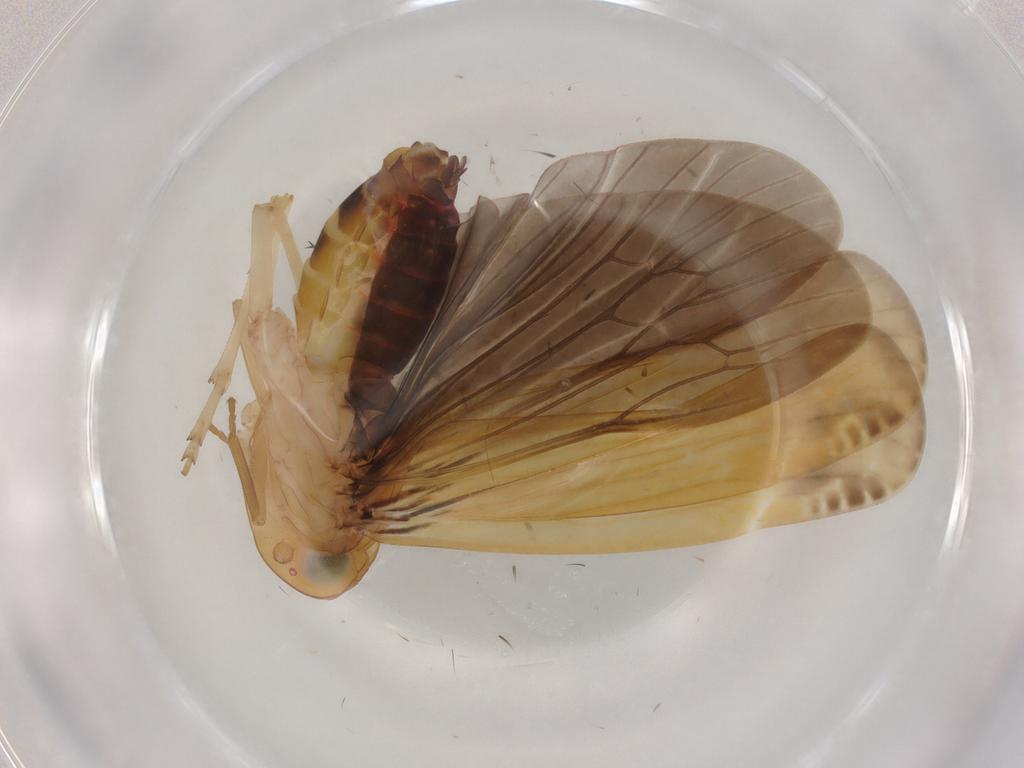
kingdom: Animalia
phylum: Arthropoda
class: Insecta
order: Hemiptera
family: Achilidae
